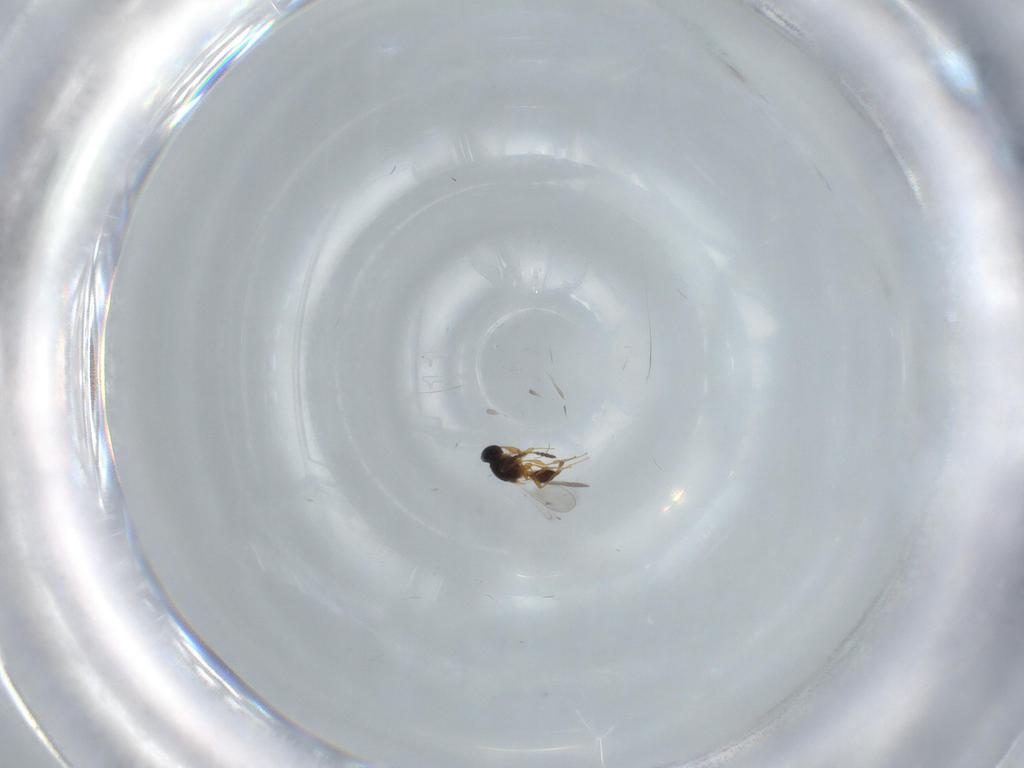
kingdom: Animalia
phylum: Arthropoda
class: Insecta
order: Hymenoptera
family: Platygastridae
